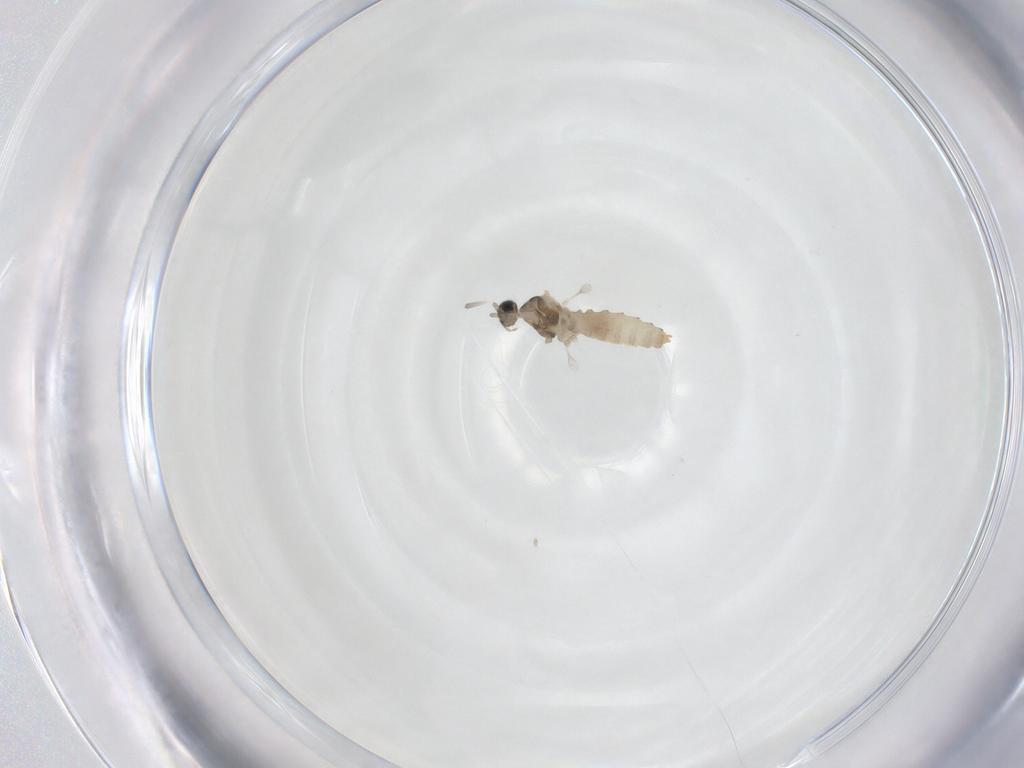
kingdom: Animalia
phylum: Arthropoda
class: Insecta
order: Diptera
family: Cecidomyiidae
